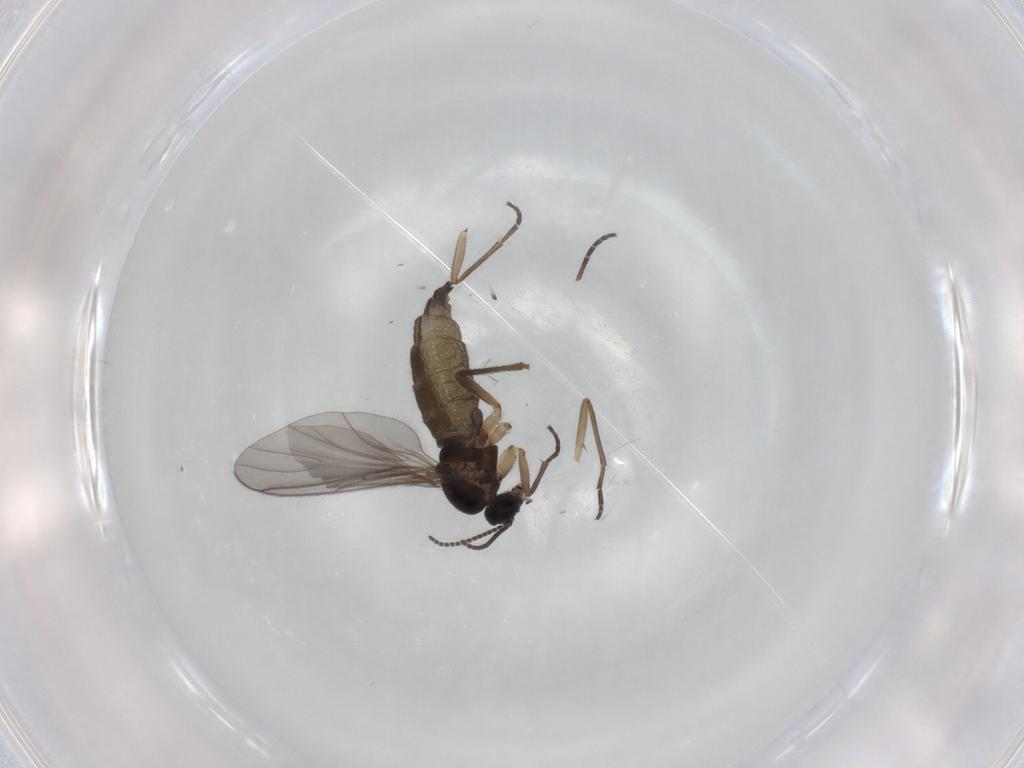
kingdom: Animalia
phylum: Arthropoda
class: Insecta
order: Diptera
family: Sciaridae
